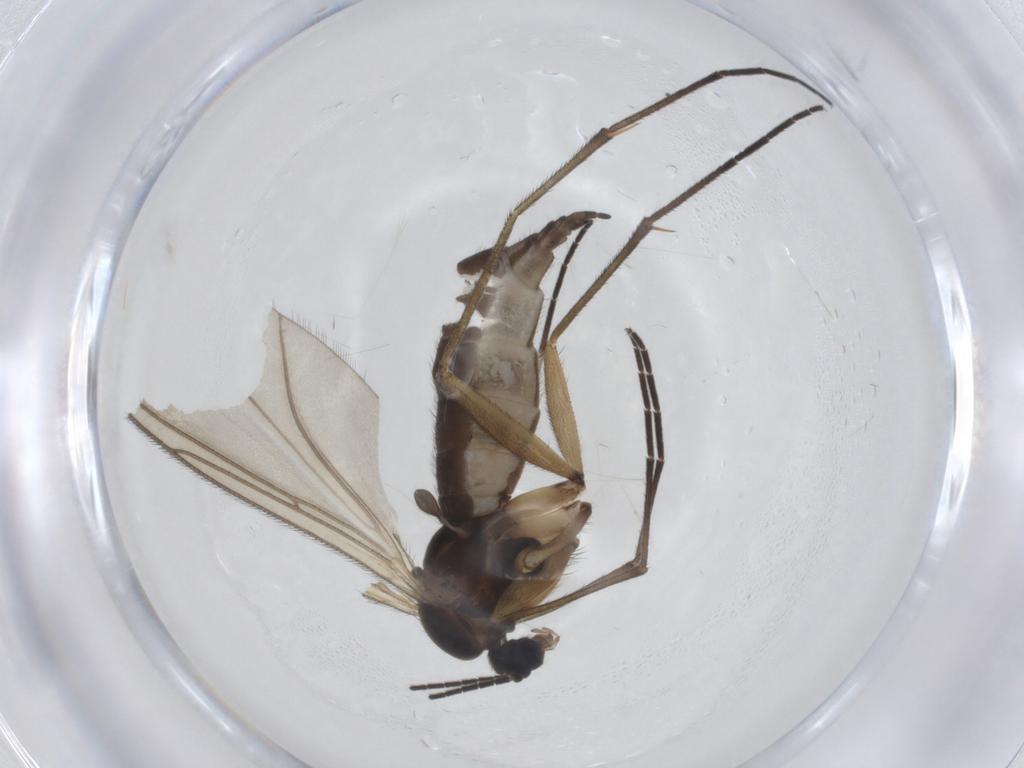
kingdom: Animalia
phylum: Arthropoda
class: Insecta
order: Diptera
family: Sciaridae
